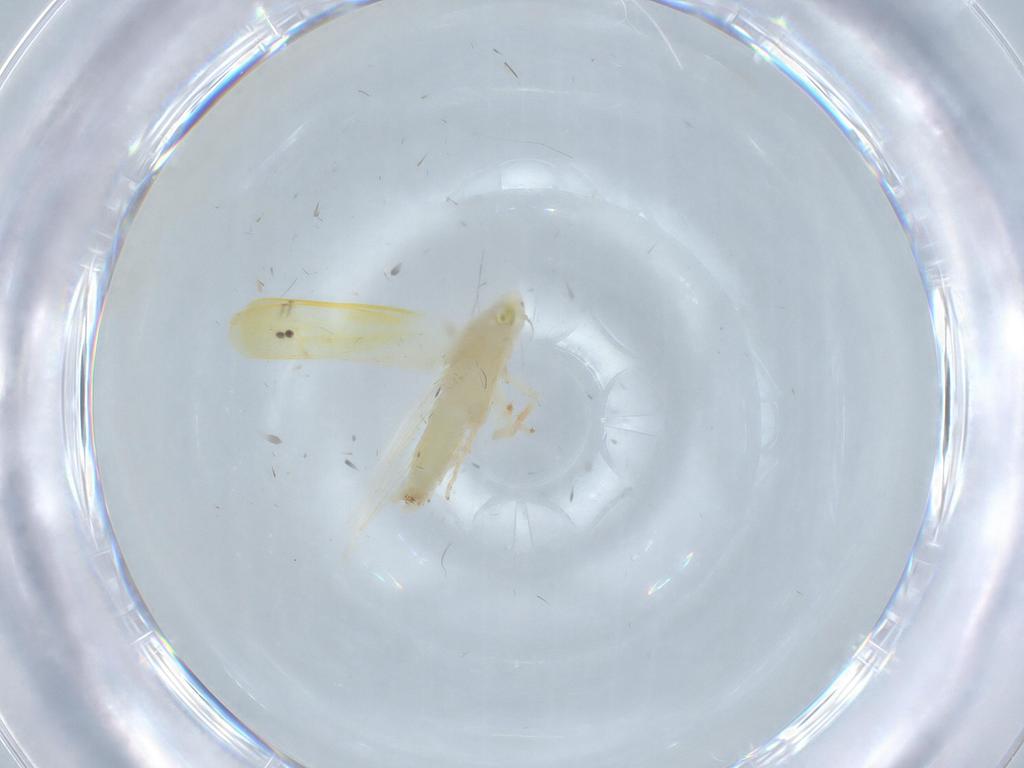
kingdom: Animalia
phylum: Arthropoda
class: Insecta
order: Hemiptera
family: Cicadellidae
